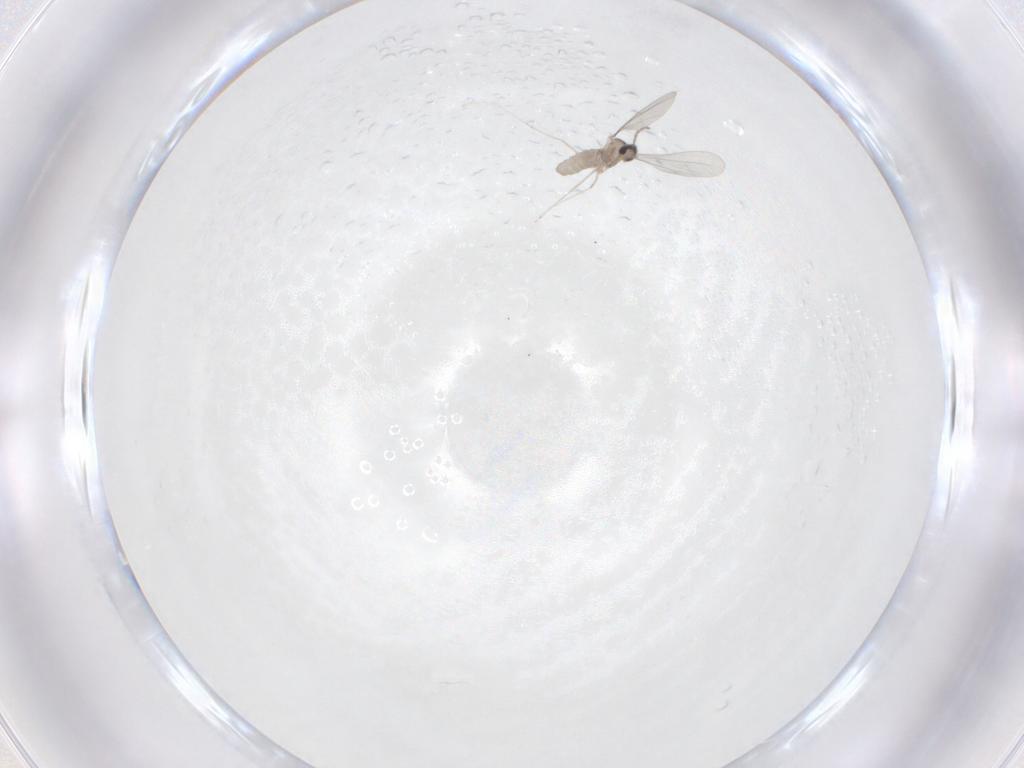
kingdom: Animalia
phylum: Arthropoda
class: Insecta
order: Diptera
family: Cecidomyiidae
